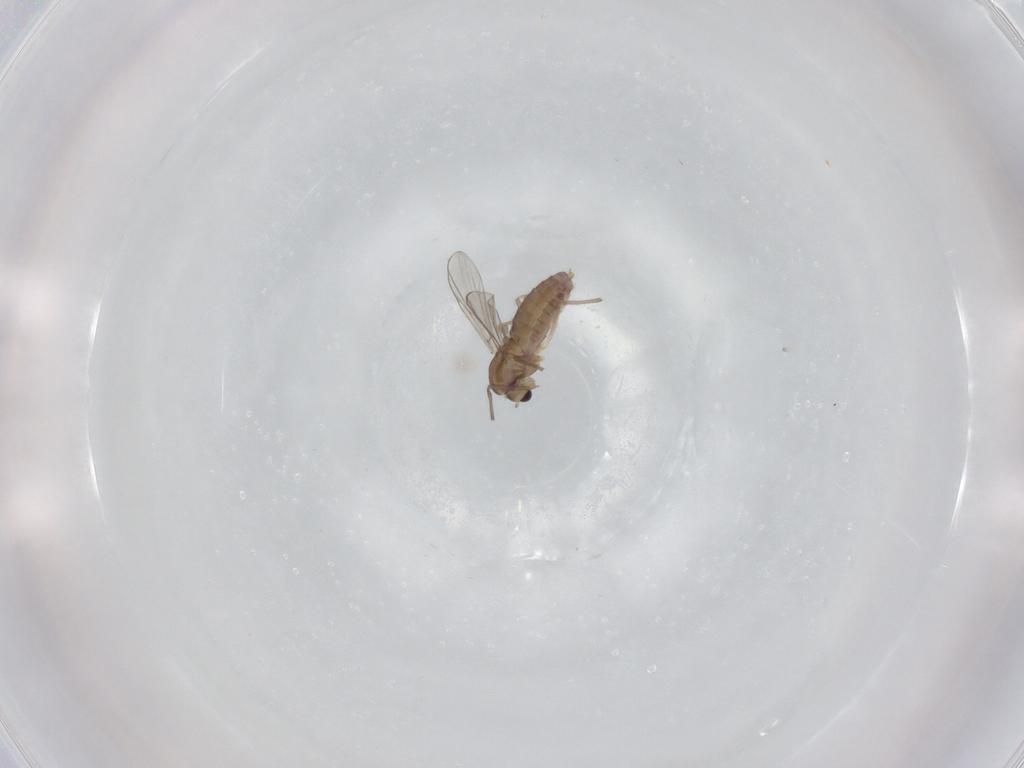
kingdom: Animalia
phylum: Arthropoda
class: Insecta
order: Diptera
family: Chironomidae
